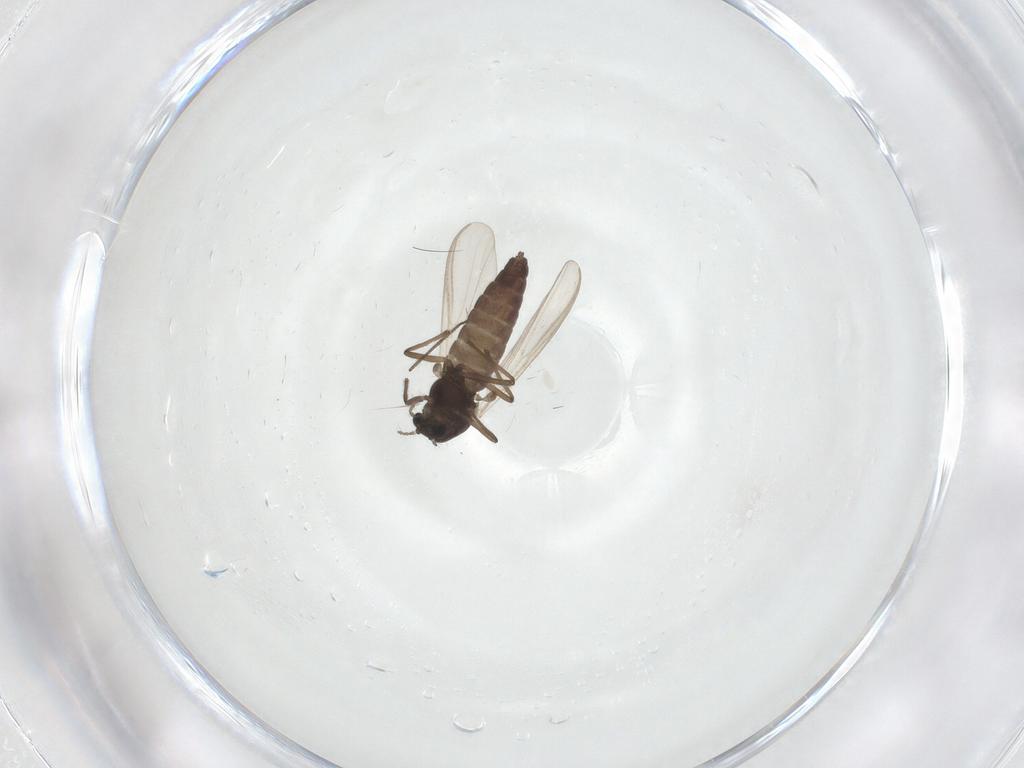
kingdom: Animalia
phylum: Arthropoda
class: Insecta
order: Diptera
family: Chironomidae
